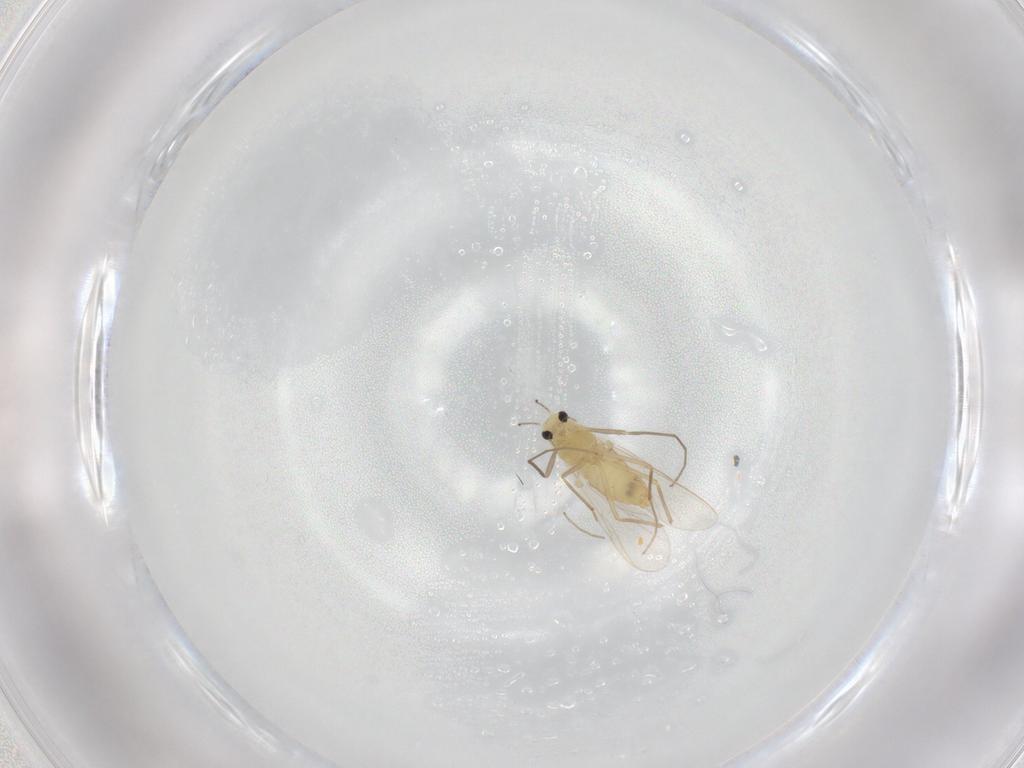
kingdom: Animalia
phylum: Arthropoda
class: Insecta
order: Diptera
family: Chironomidae
